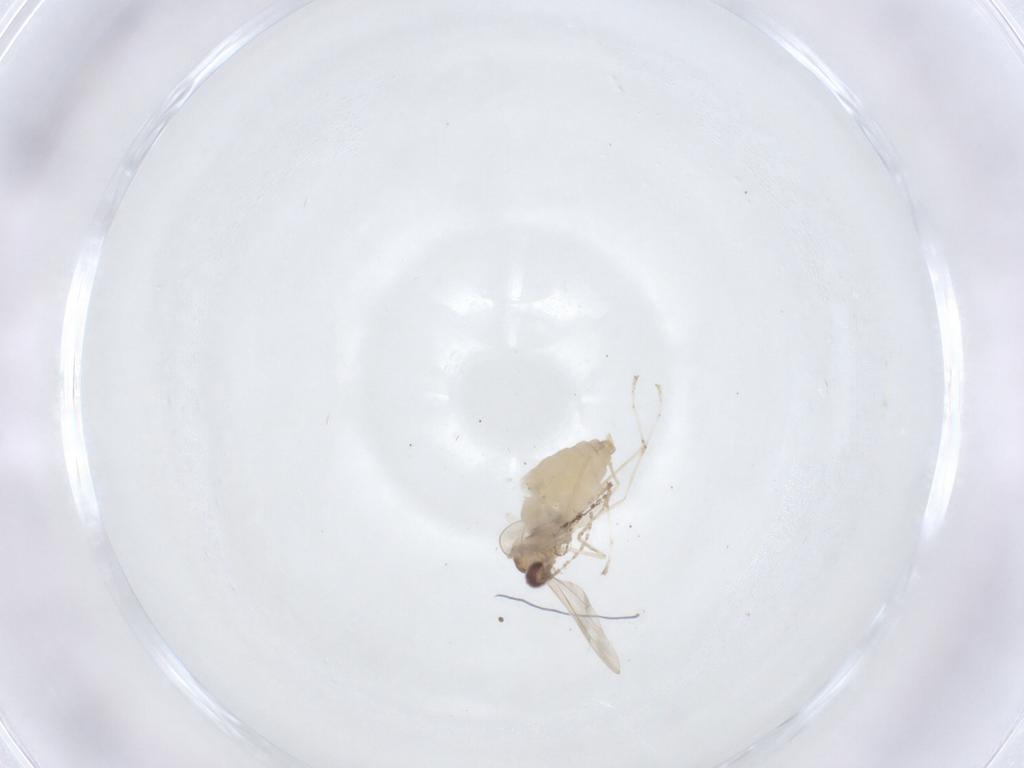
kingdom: Animalia
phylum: Arthropoda
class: Insecta
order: Diptera
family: Cecidomyiidae
